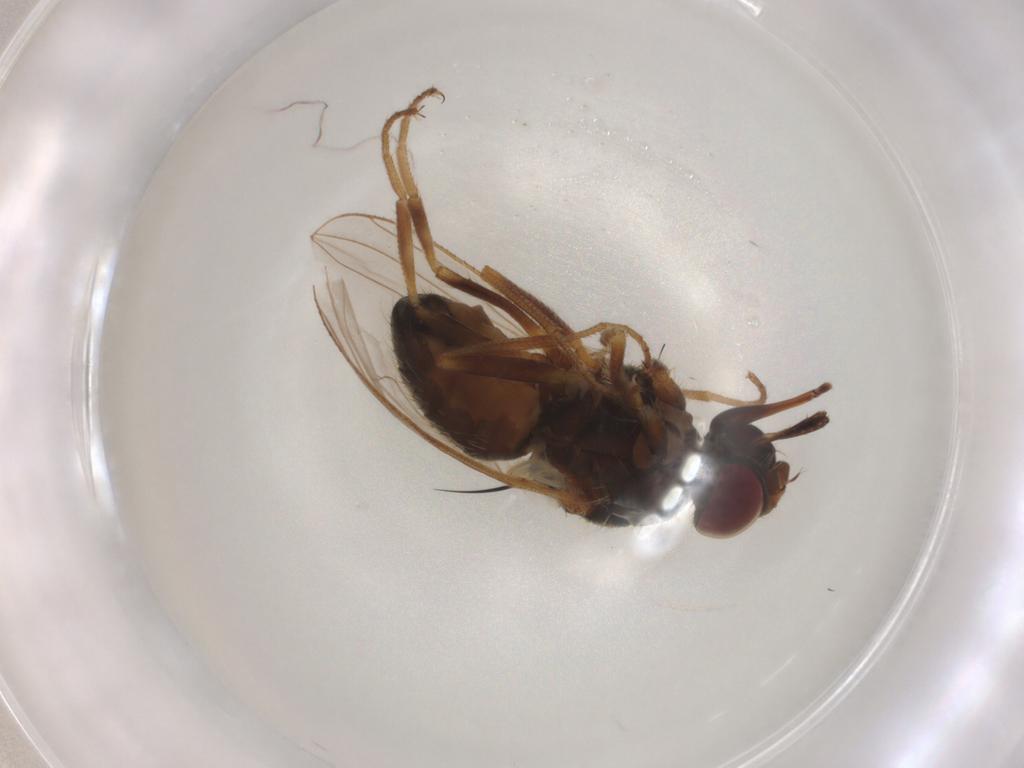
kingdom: Animalia
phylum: Arthropoda
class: Insecta
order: Diptera
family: Muscidae
